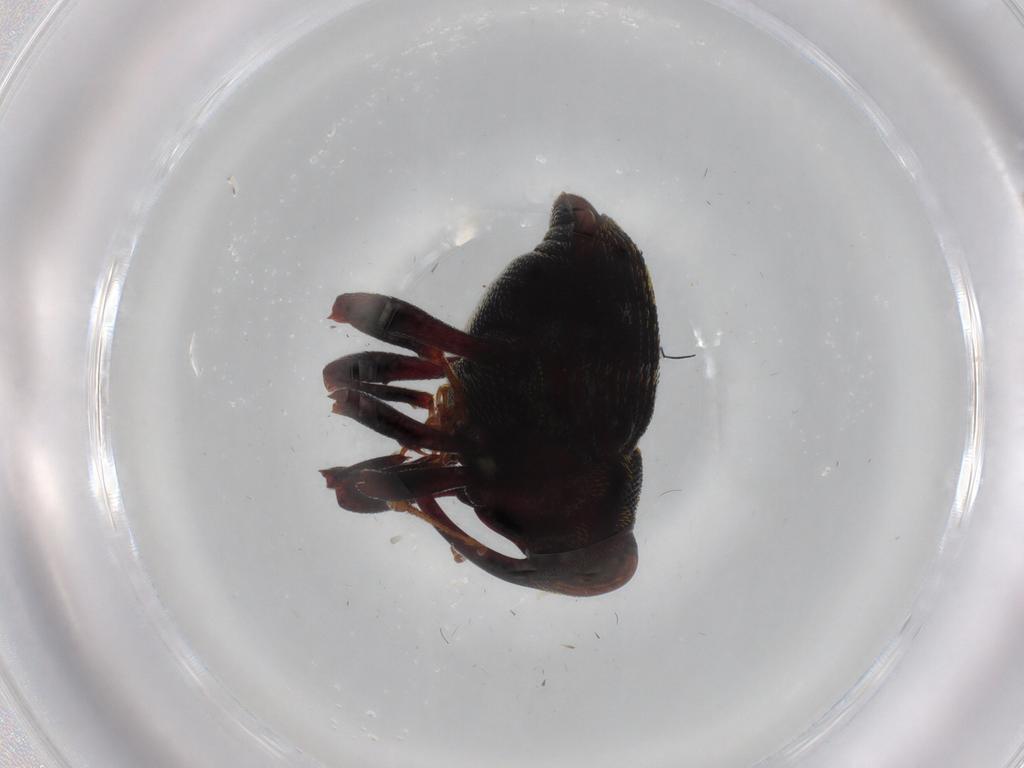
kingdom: Animalia
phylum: Arthropoda
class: Insecta
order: Coleoptera
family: Curculionidae
